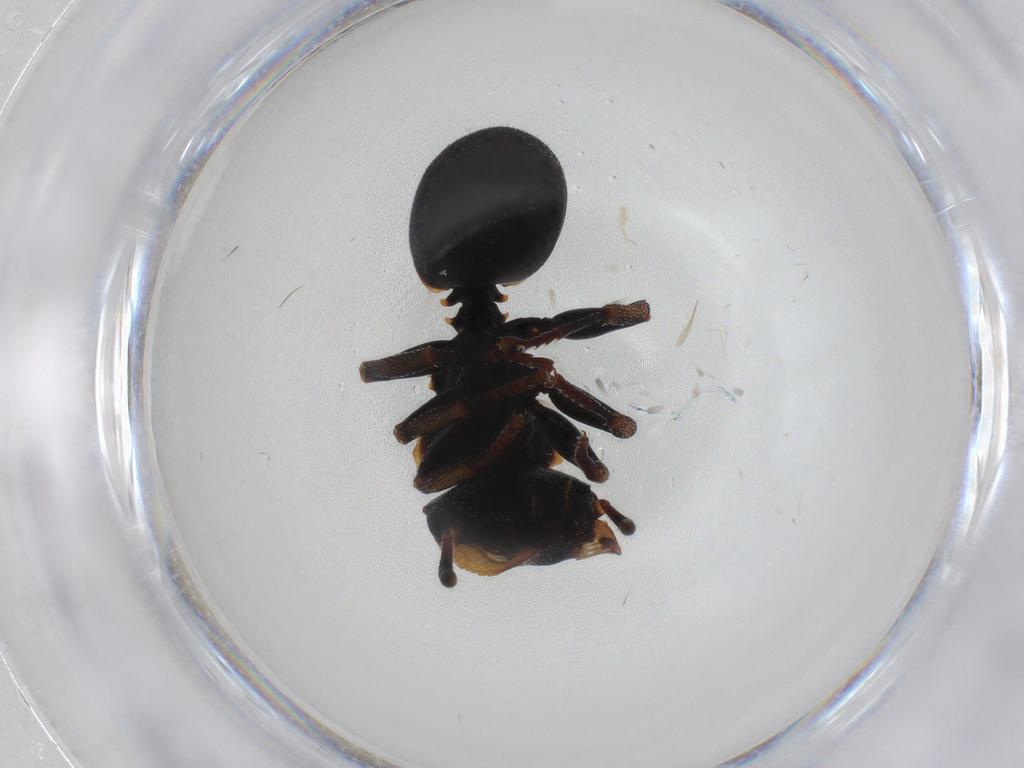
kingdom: Animalia
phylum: Arthropoda
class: Insecta
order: Hymenoptera
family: Formicidae
